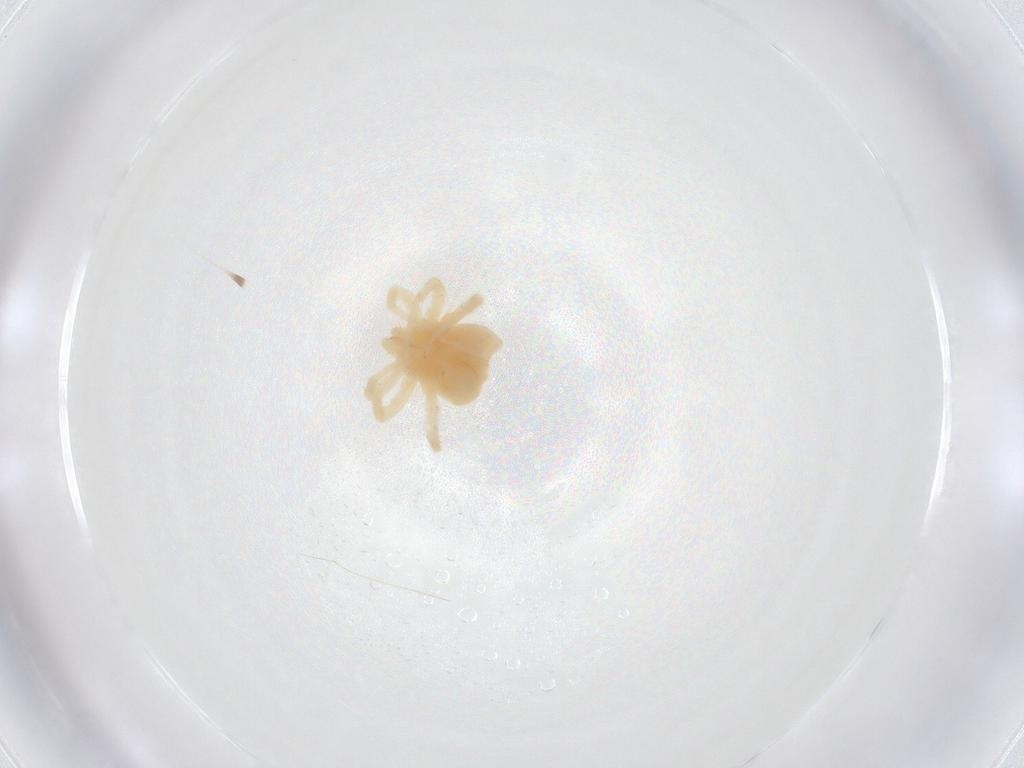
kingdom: Animalia
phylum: Arthropoda
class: Arachnida
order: Trombidiformes
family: Anystidae
